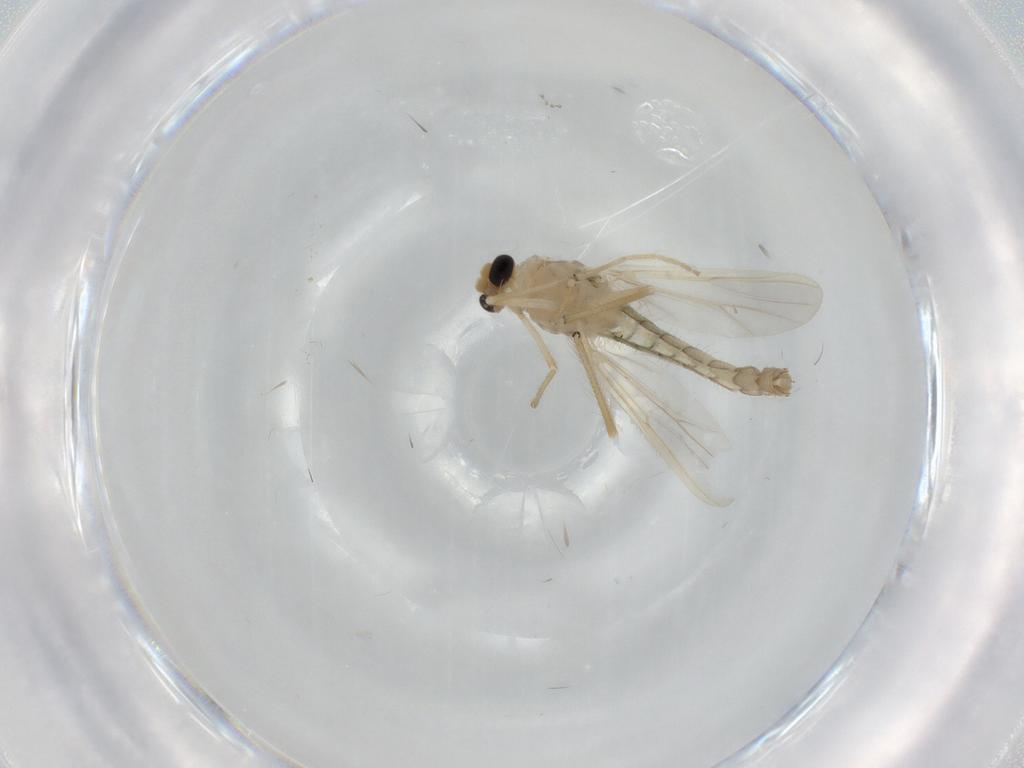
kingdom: Animalia
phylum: Arthropoda
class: Insecta
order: Diptera
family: Chironomidae
